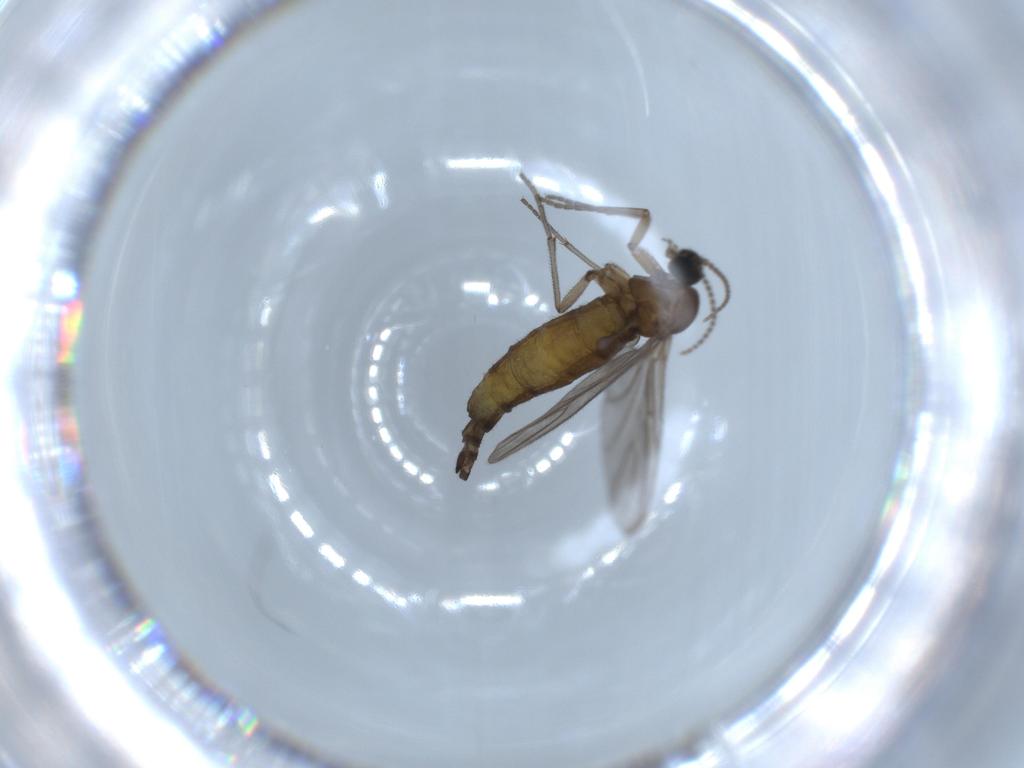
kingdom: Animalia
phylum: Arthropoda
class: Insecta
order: Diptera
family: Sciaridae
